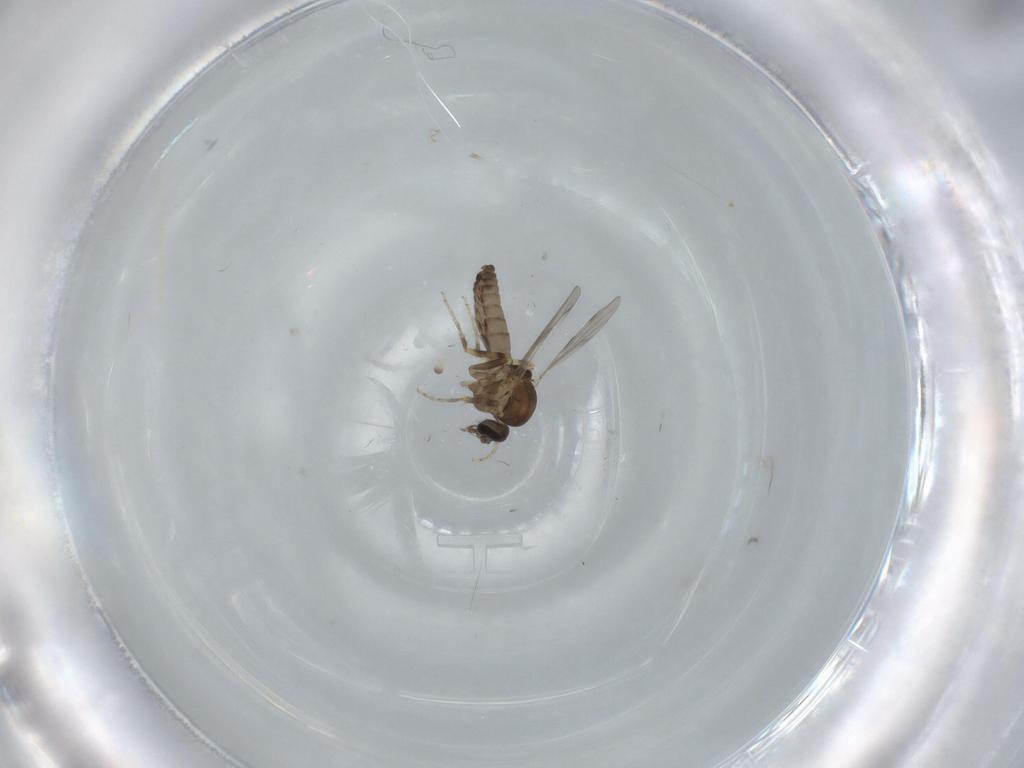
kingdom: Animalia
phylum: Arthropoda
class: Insecta
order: Diptera
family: Ceratopogonidae
